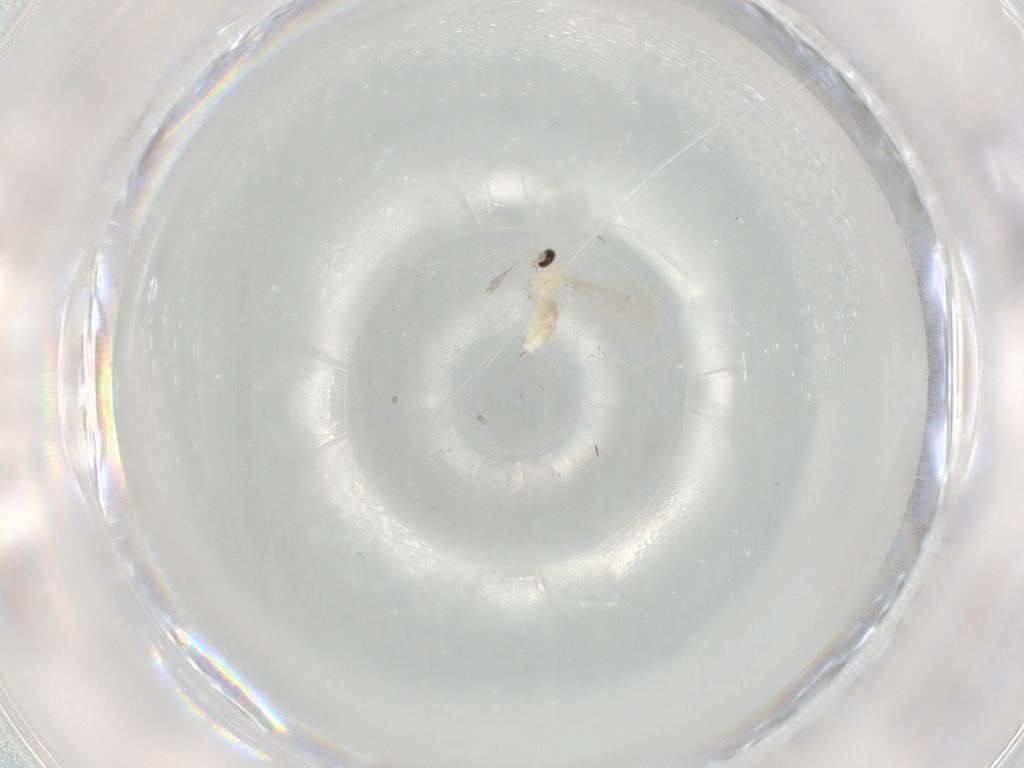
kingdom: Animalia
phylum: Arthropoda
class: Insecta
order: Diptera
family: Cecidomyiidae
